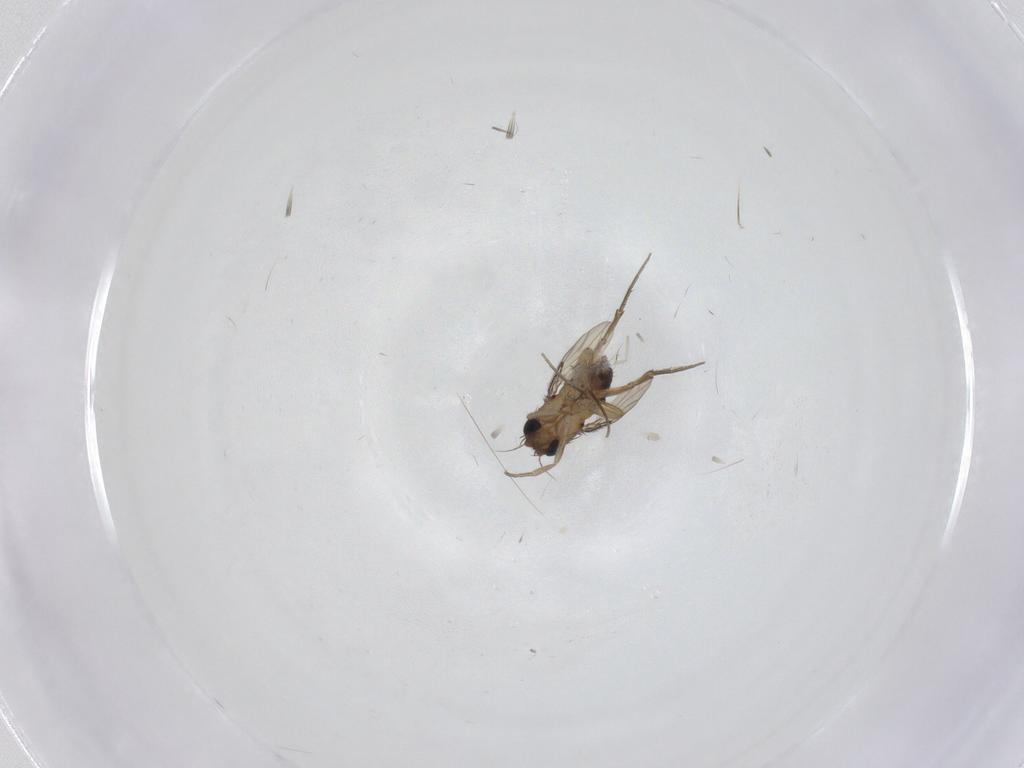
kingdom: Animalia
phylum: Arthropoda
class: Insecta
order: Diptera
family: Phoridae
